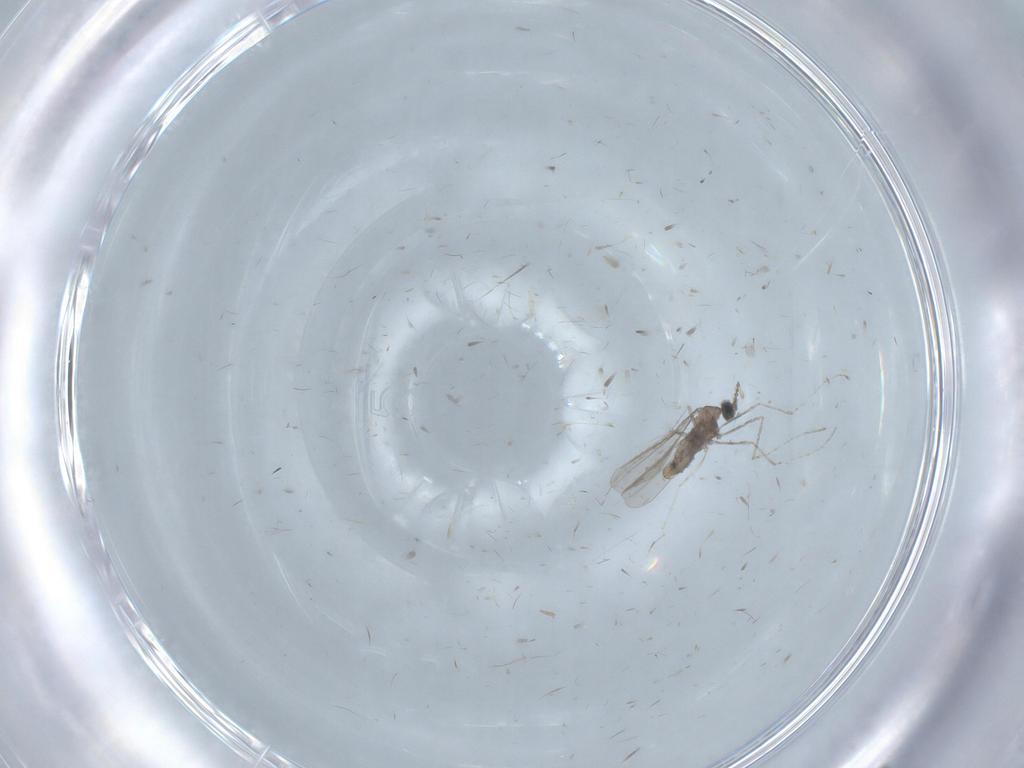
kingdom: Animalia
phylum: Arthropoda
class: Insecta
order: Diptera
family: Cecidomyiidae
